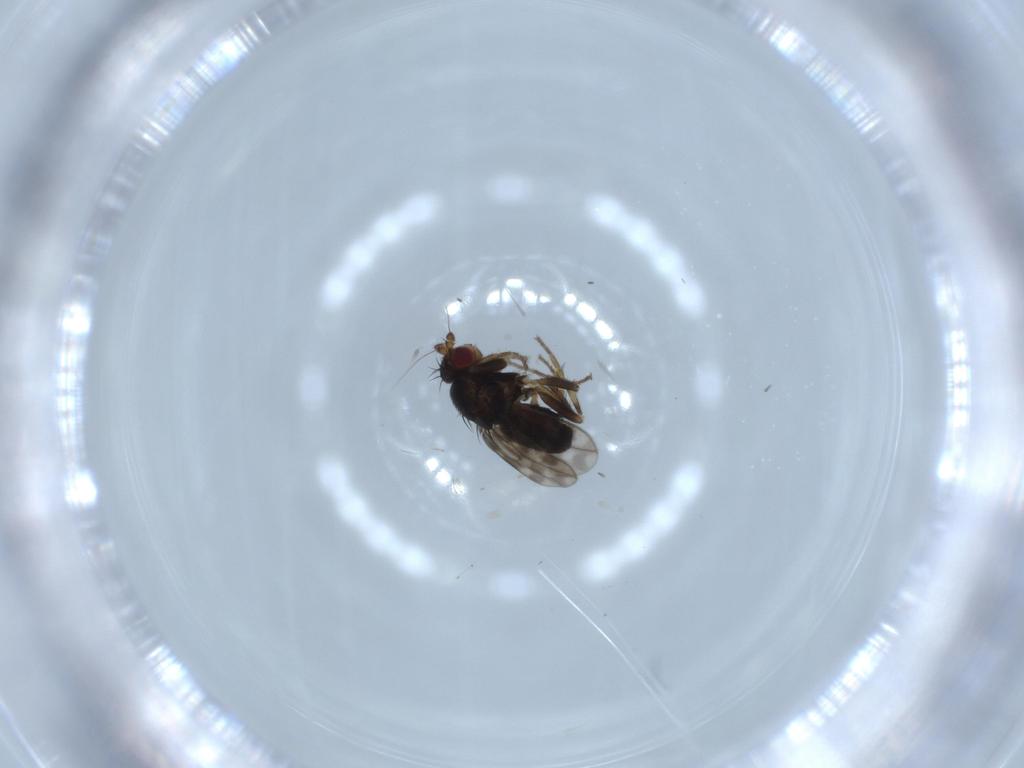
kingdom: Animalia
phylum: Arthropoda
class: Insecta
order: Diptera
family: Sphaeroceridae
